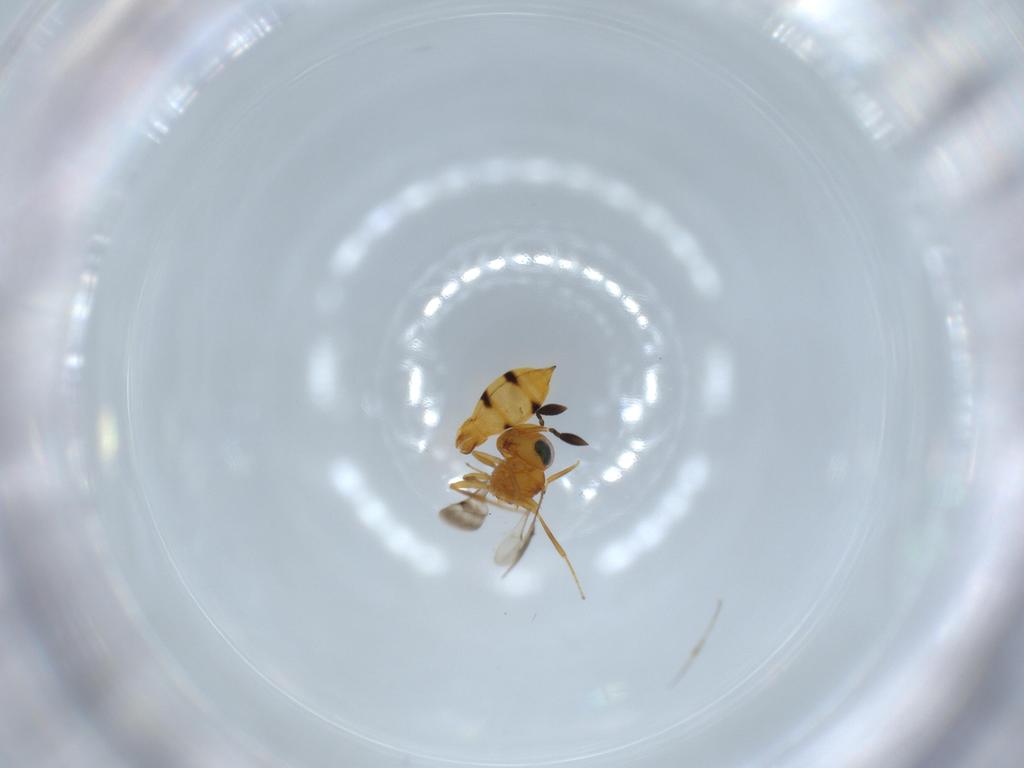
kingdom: Animalia
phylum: Arthropoda
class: Insecta
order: Hymenoptera
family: Scelionidae
